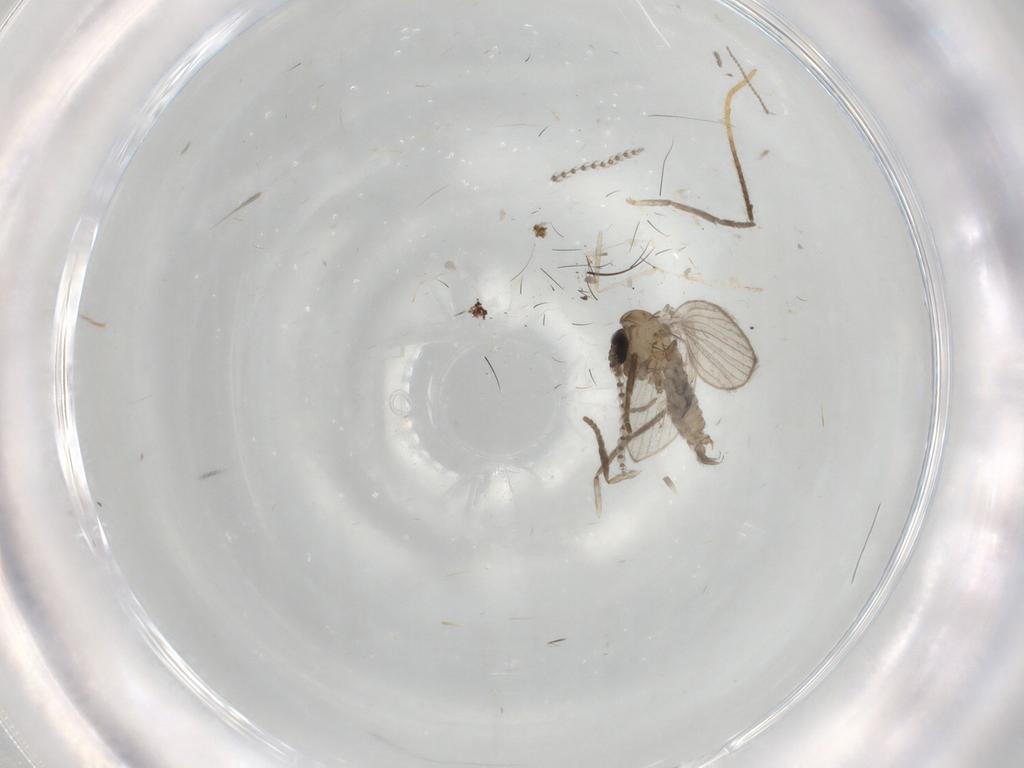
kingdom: Animalia
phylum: Arthropoda
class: Insecta
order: Diptera
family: Psychodidae
